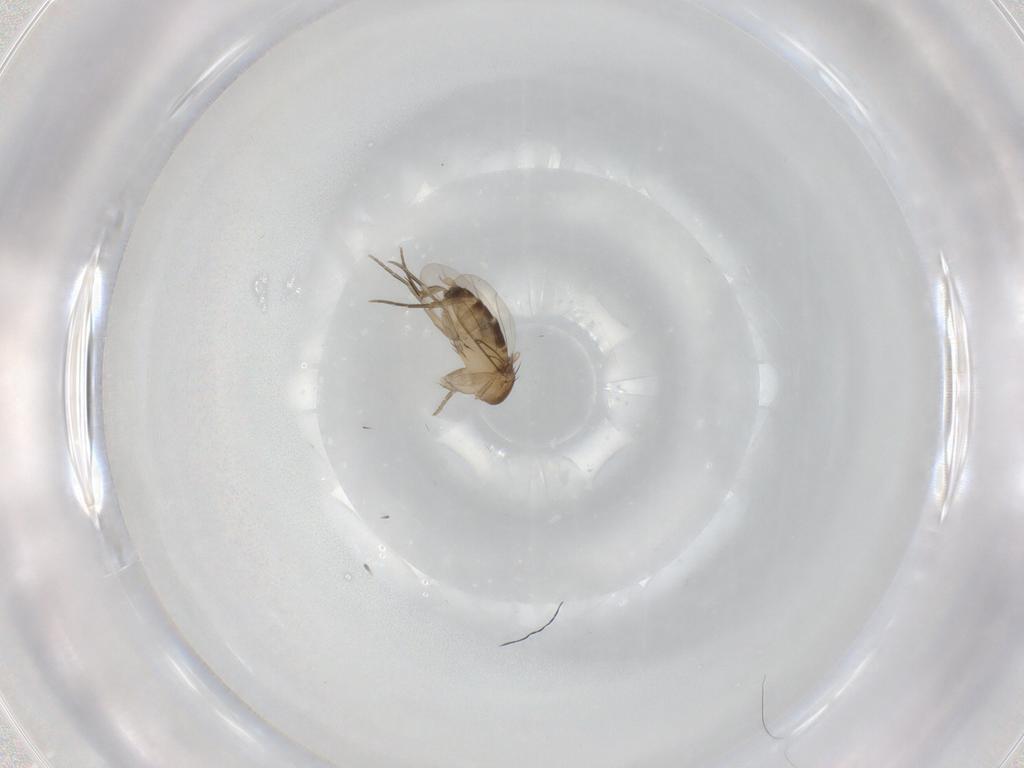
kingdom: Animalia
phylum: Arthropoda
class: Insecta
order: Diptera
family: Phoridae
